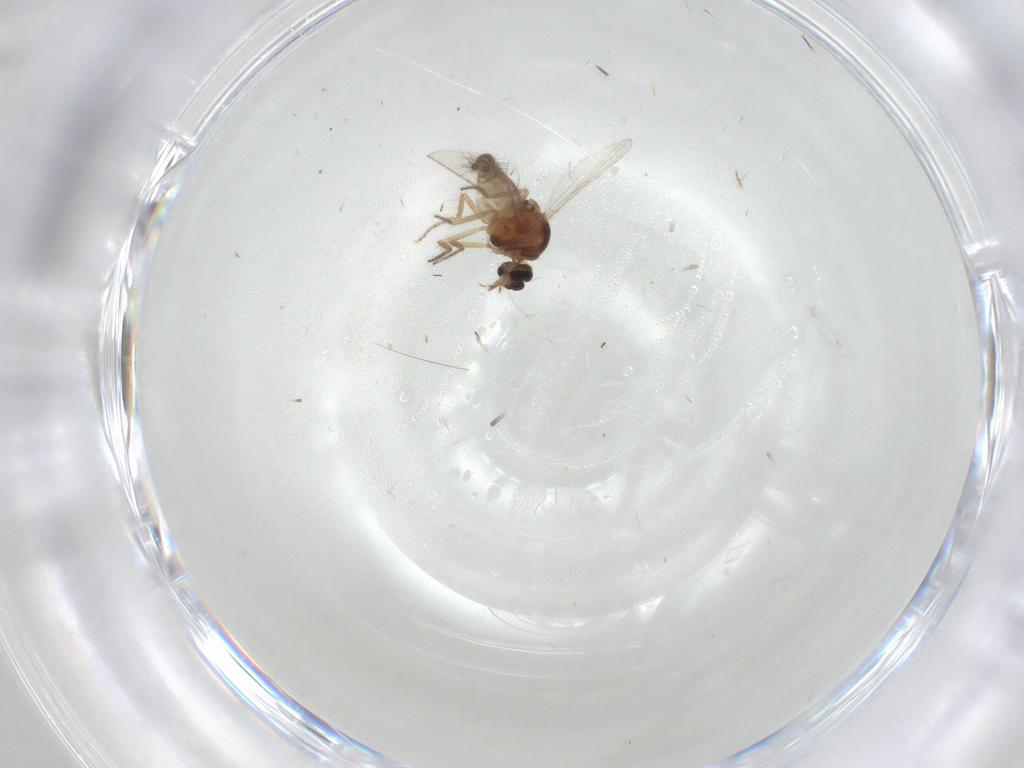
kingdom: Animalia
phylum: Arthropoda
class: Insecta
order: Diptera
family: Ceratopogonidae
